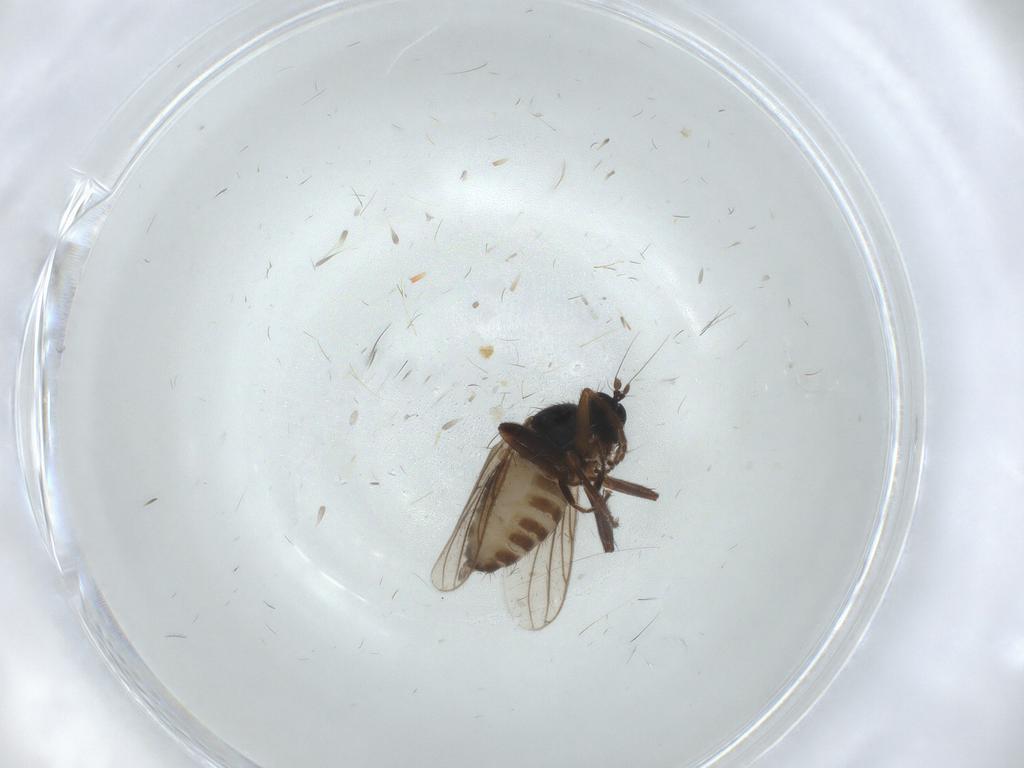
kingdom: Animalia
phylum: Arthropoda
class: Insecta
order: Diptera
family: Hybotidae
